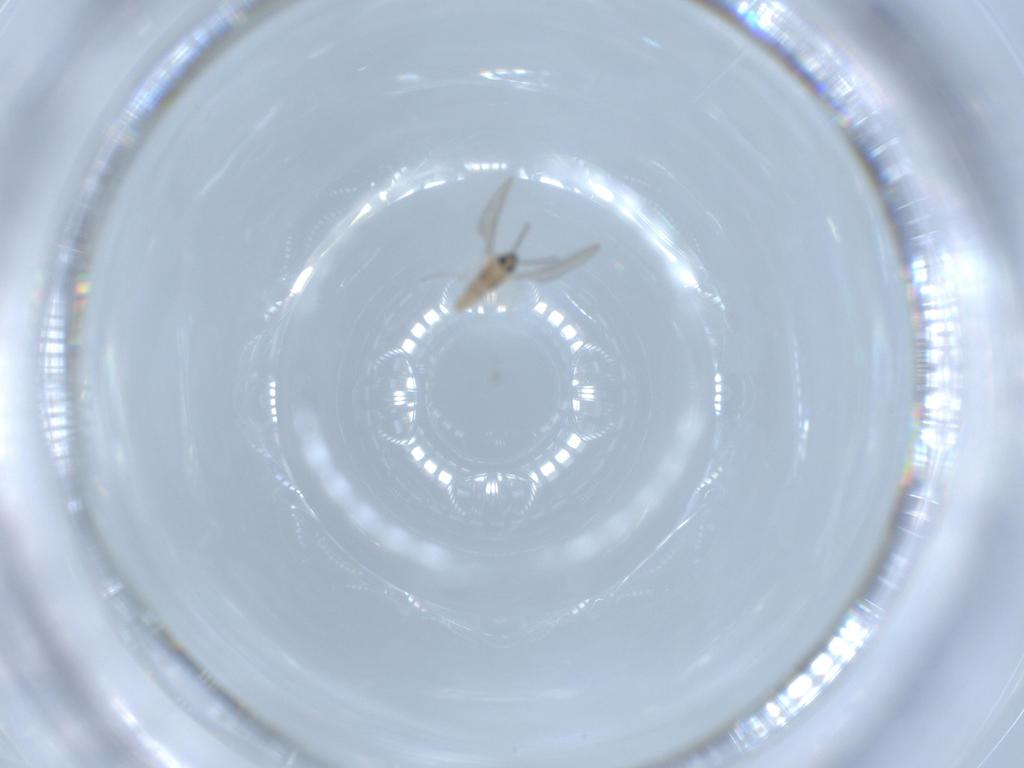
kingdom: Animalia
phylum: Arthropoda
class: Insecta
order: Diptera
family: Cecidomyiidae
